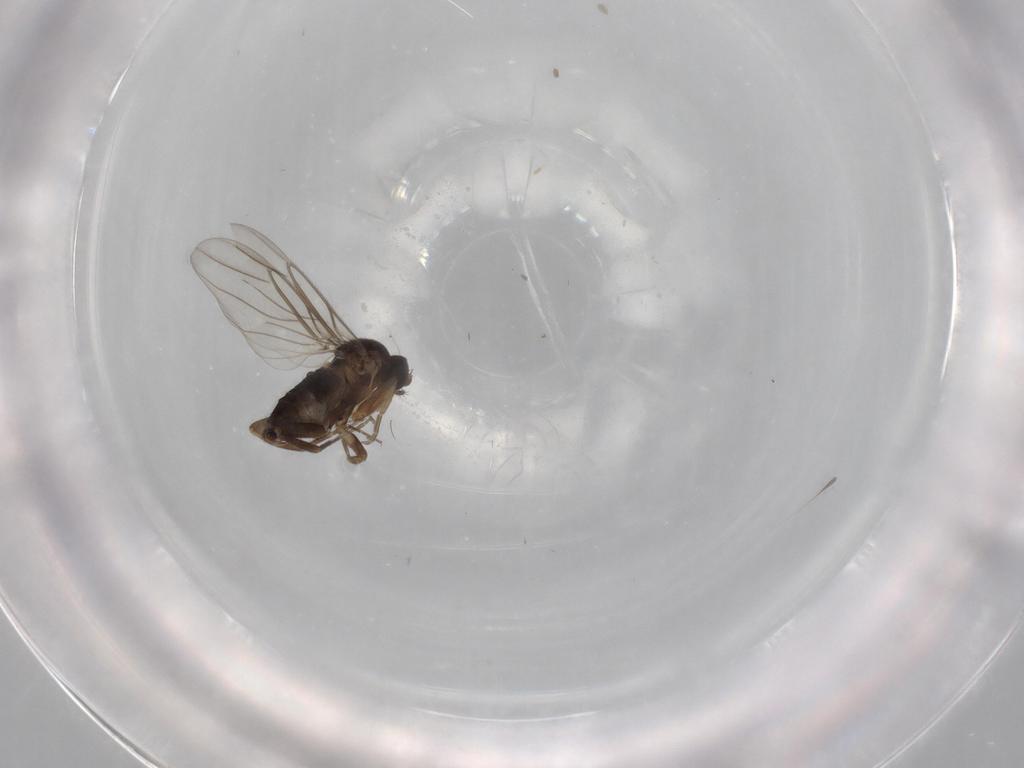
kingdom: Animalia
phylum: Arthropoda
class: Insecta
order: Diptera
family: Phoridae
